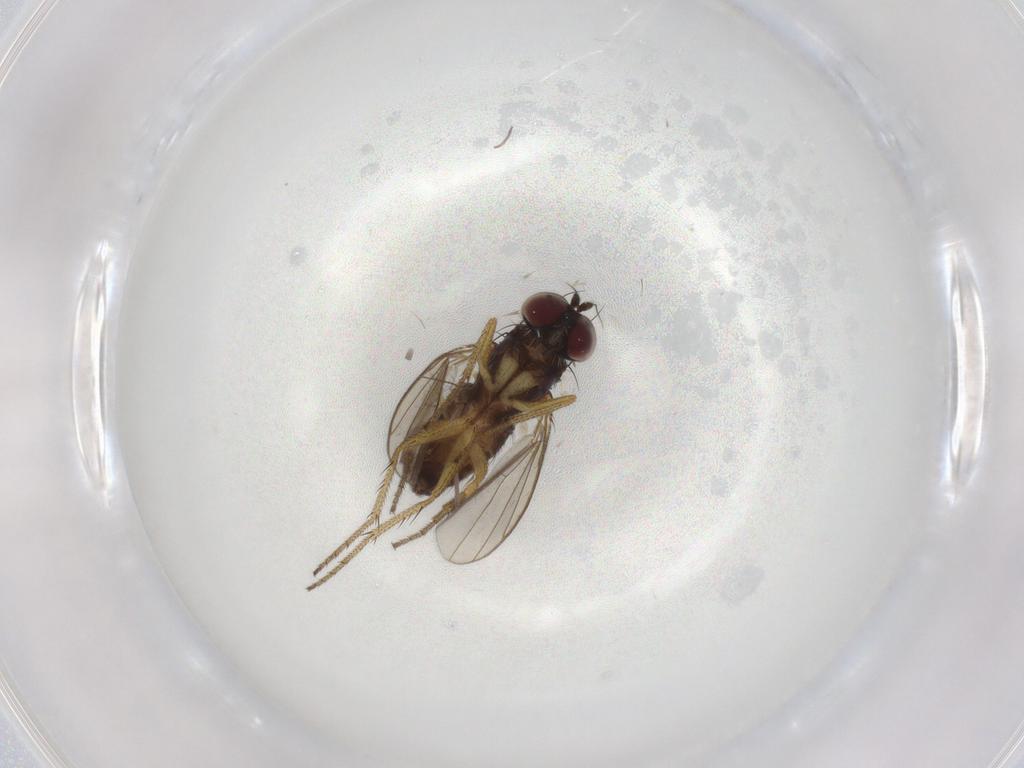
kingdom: Animalia
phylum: Arthropoda
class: Insecta
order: Diptera
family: Dolichopodidae
